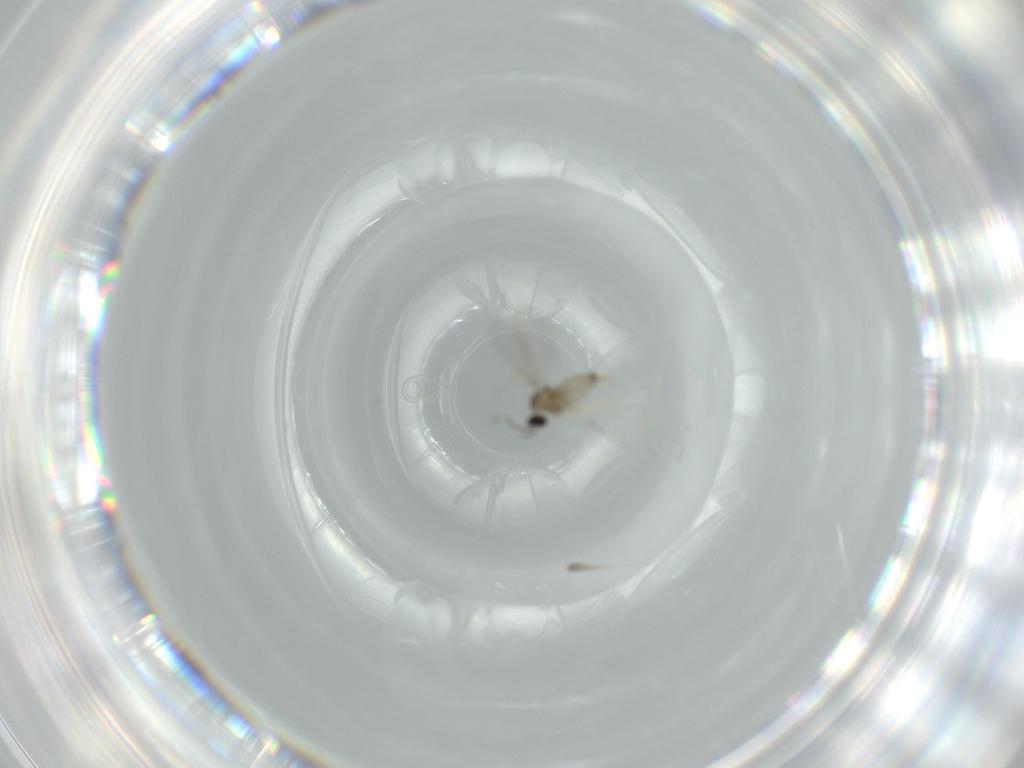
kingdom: Animalia
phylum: Arthropoda
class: Insecta
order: Diptera
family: Cecidomyiidae
